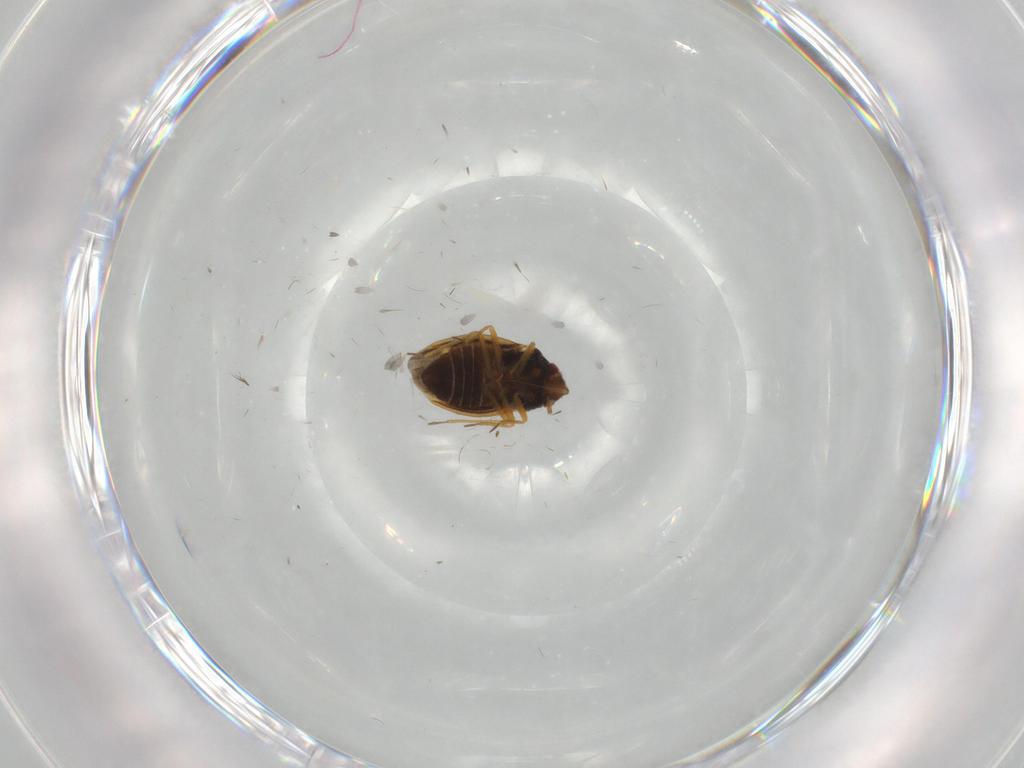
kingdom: Animalia
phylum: Arthropoda
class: Insecta
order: Hemiptera
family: Schizopteridae
